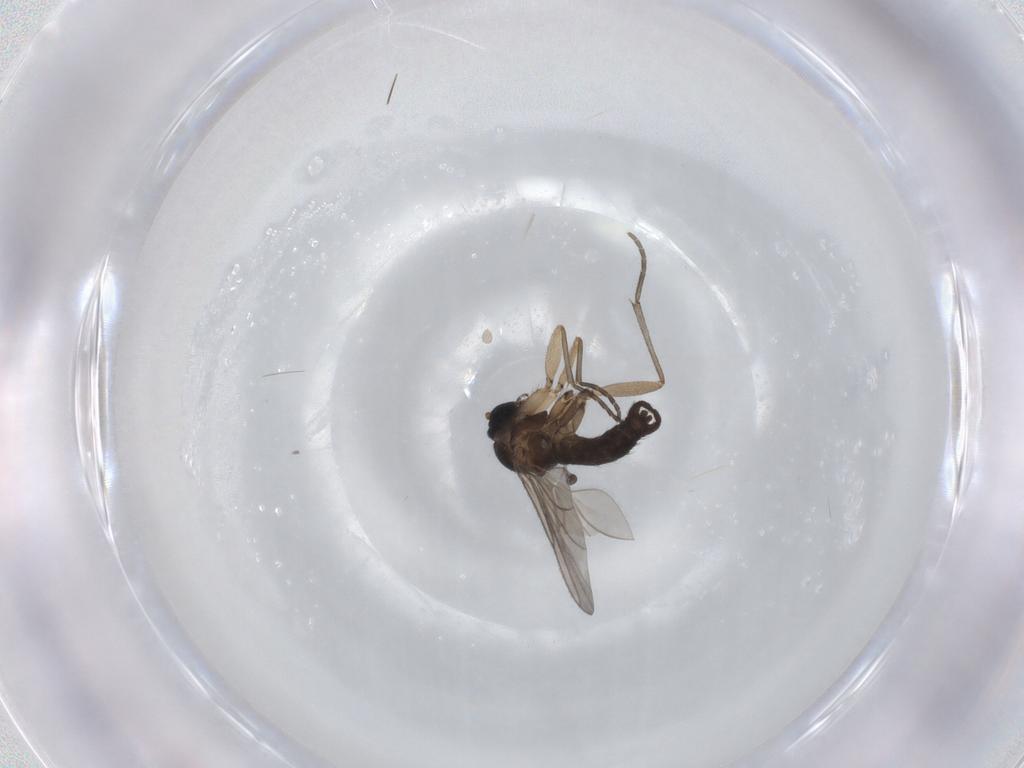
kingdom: Animalia
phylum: Arthropoda
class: Insecta
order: Diptera
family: Sciaridae
